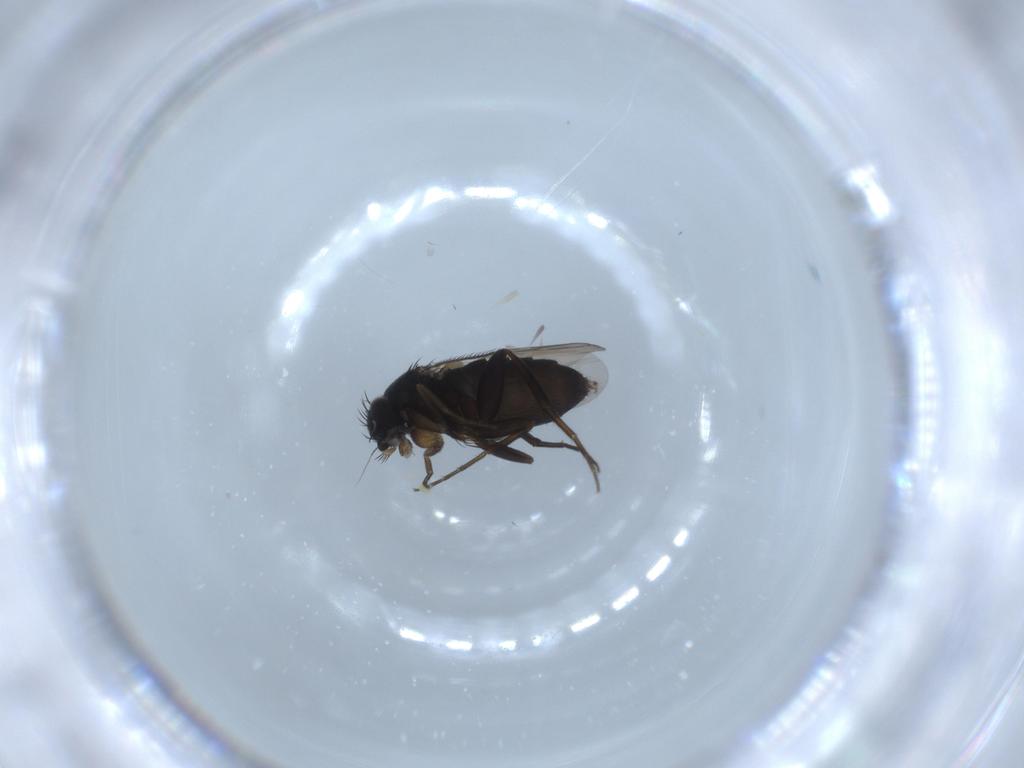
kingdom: Animalia
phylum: Arthropoda
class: Insecta
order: Diptera
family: Phoridae
